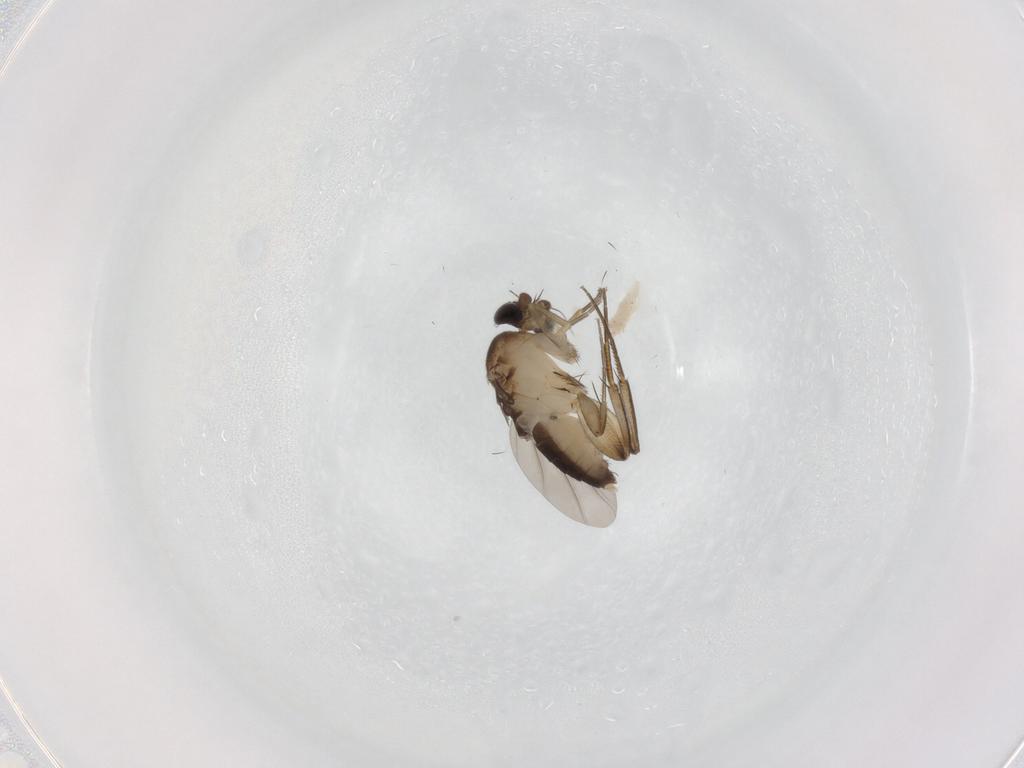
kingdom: Animalia
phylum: Arthropoda
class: Insecta
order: Diptera
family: Phoridae
